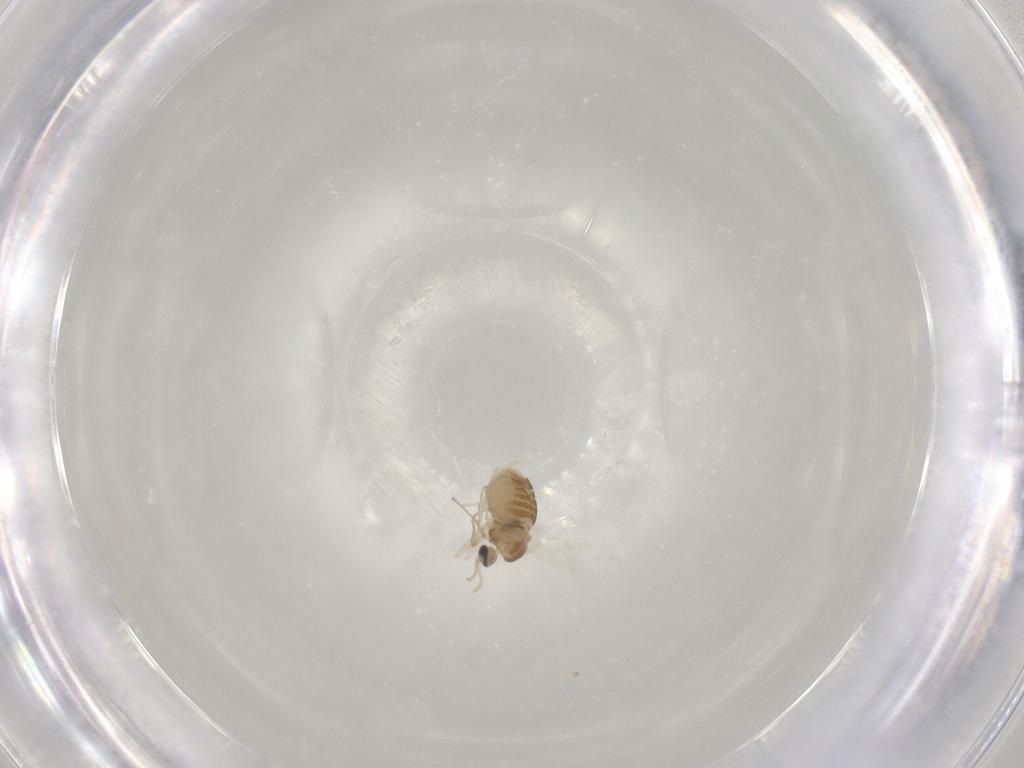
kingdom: Animalia
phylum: Arthropoda
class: Insecta
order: Diptera
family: Cecidomyiidae
